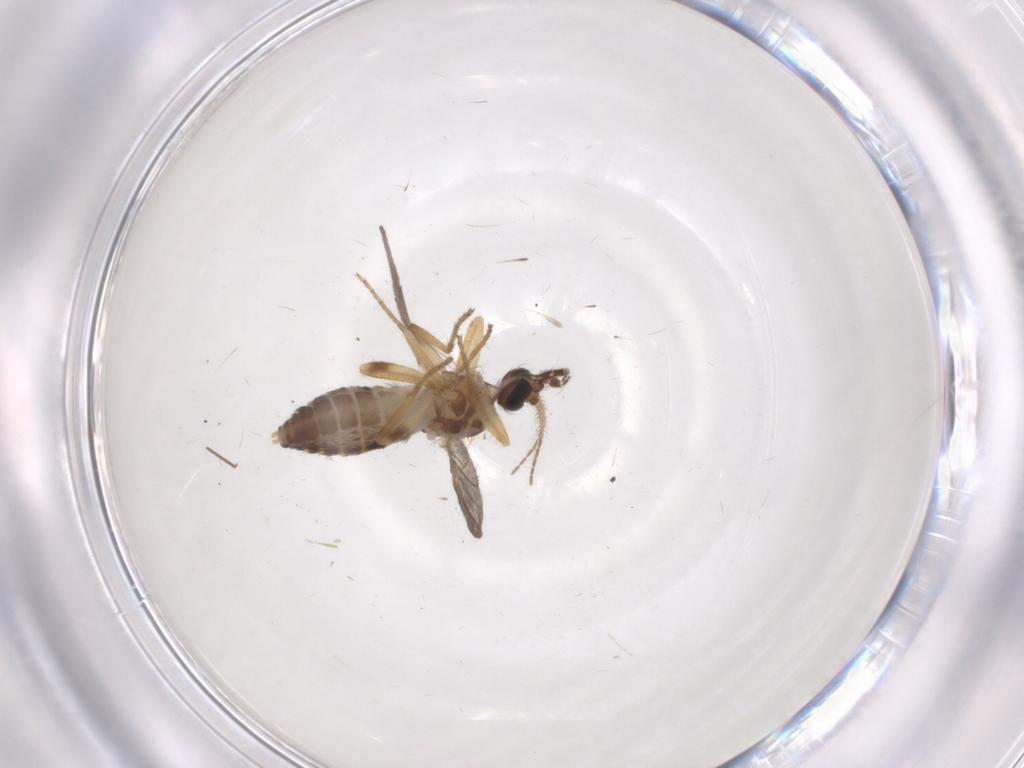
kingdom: Animalia
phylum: Arthropoda
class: Insecta
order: Diptera
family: Ceratopogonidae
